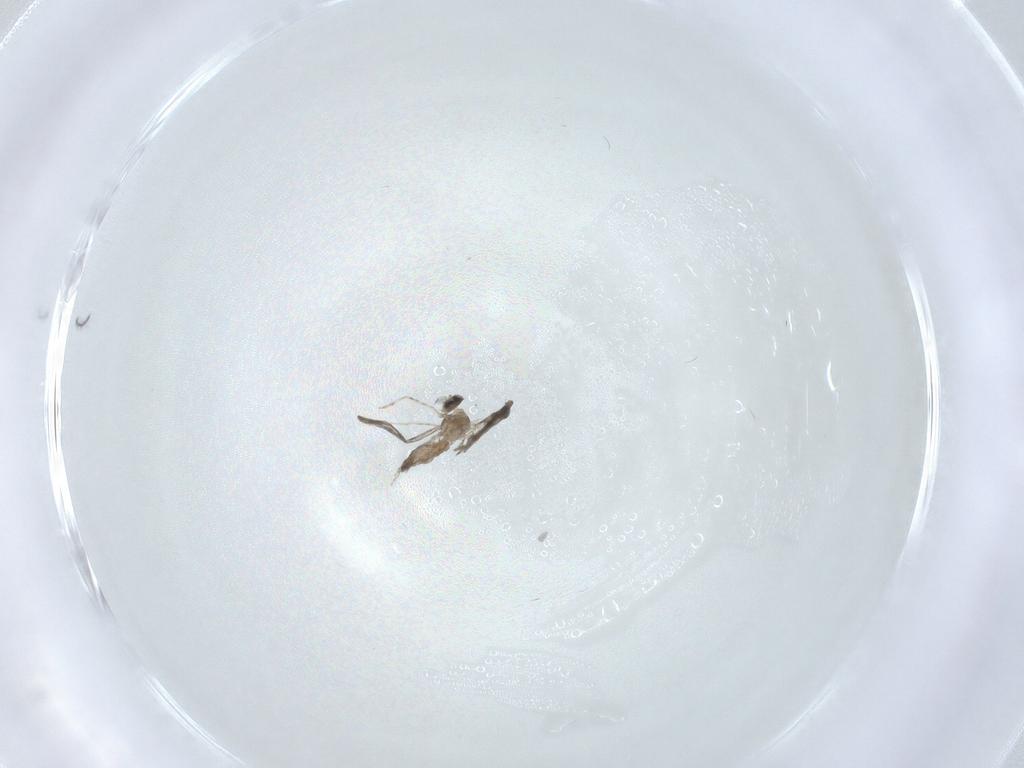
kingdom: Animalia
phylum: Arthropoda
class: Insecta
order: Diptera
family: Cecidomyiidae
